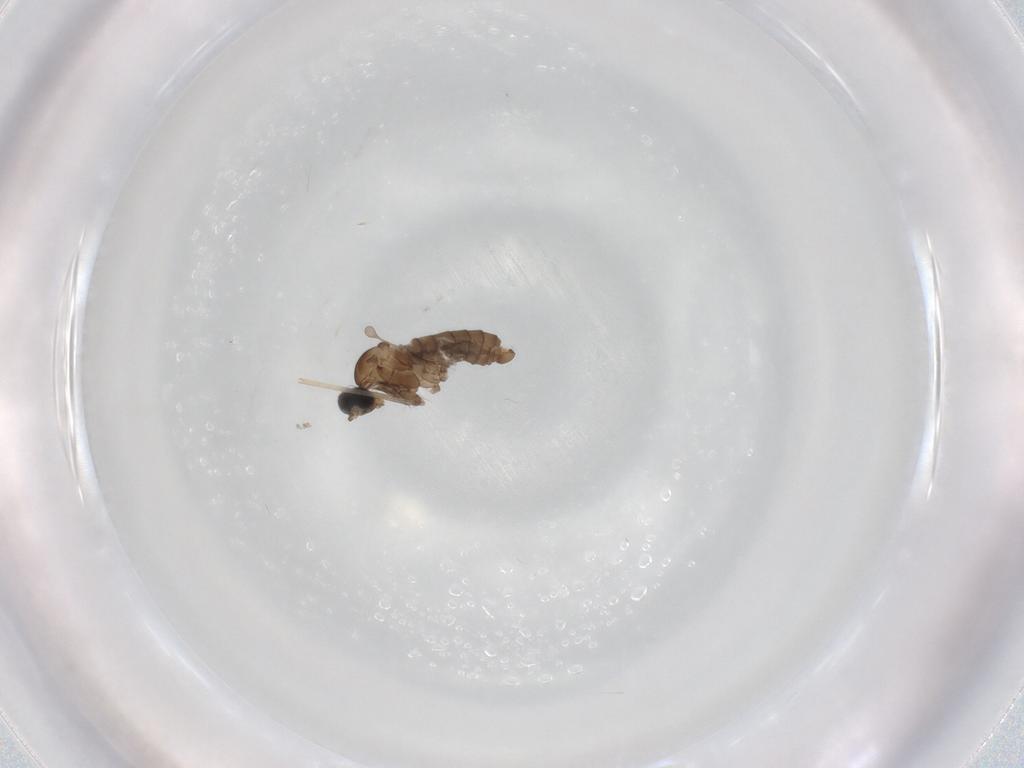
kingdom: Animalia
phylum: Arthropoda
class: Insecta
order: Diptera
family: Cecidomyiidae
